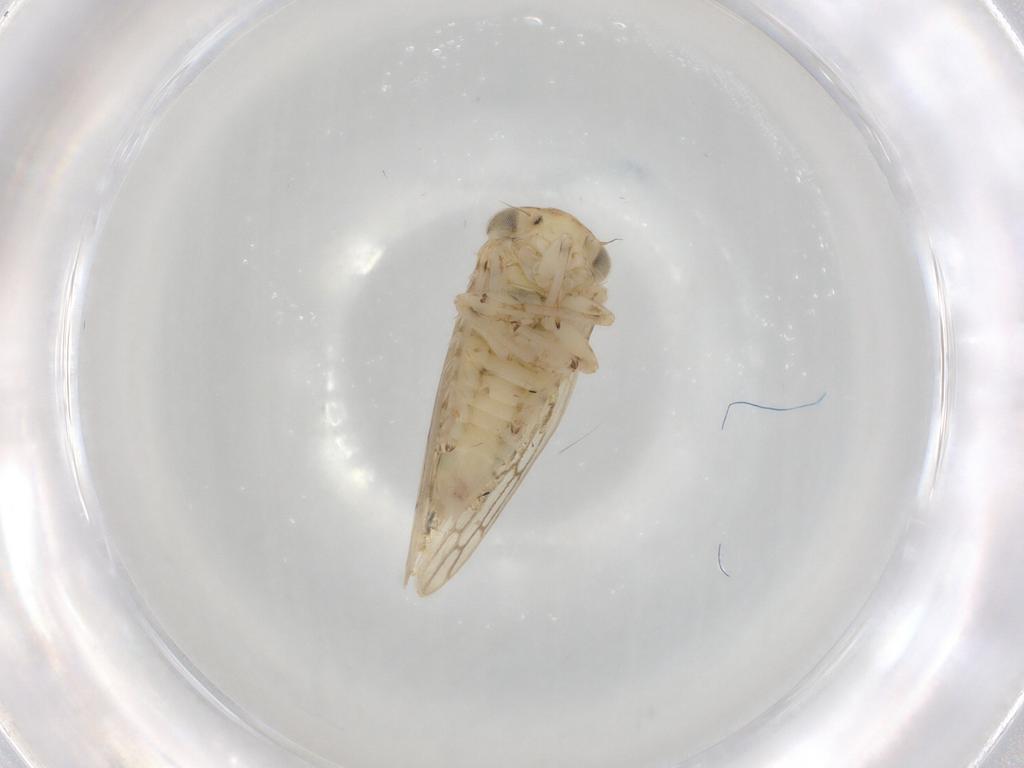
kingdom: Animalia
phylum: Arthropoda
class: Insecta
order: Hemiptera
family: Cicadellidae
